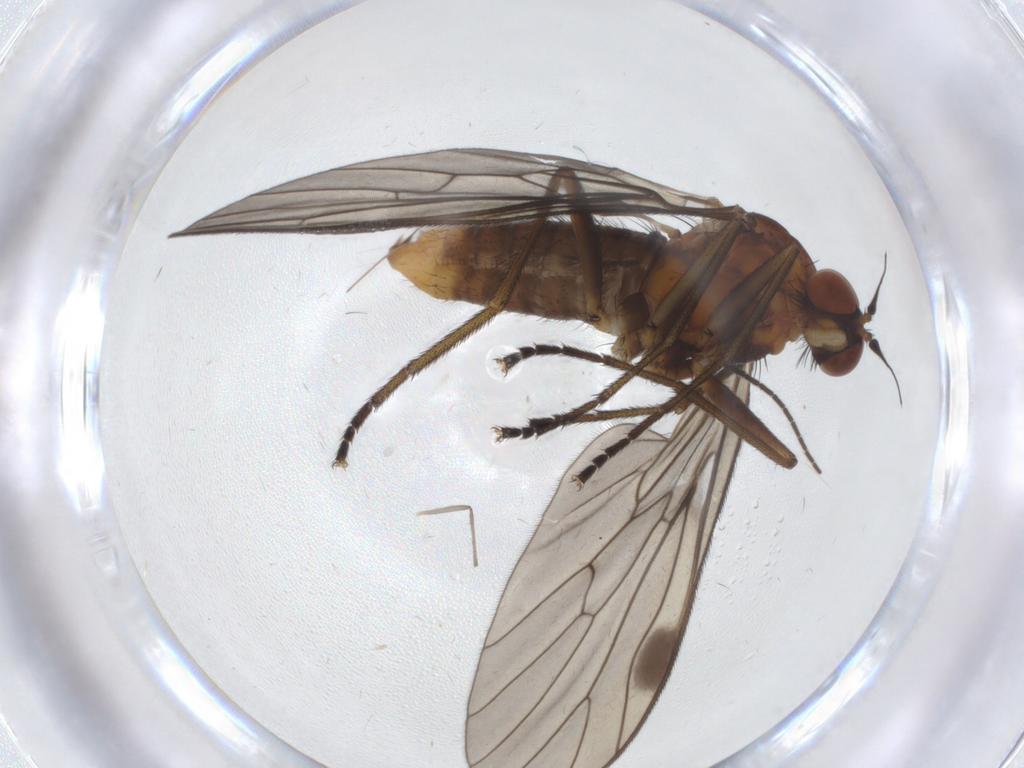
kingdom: Animalia
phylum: Arthropoda
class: Insecta
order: Diptera
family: Empididae
